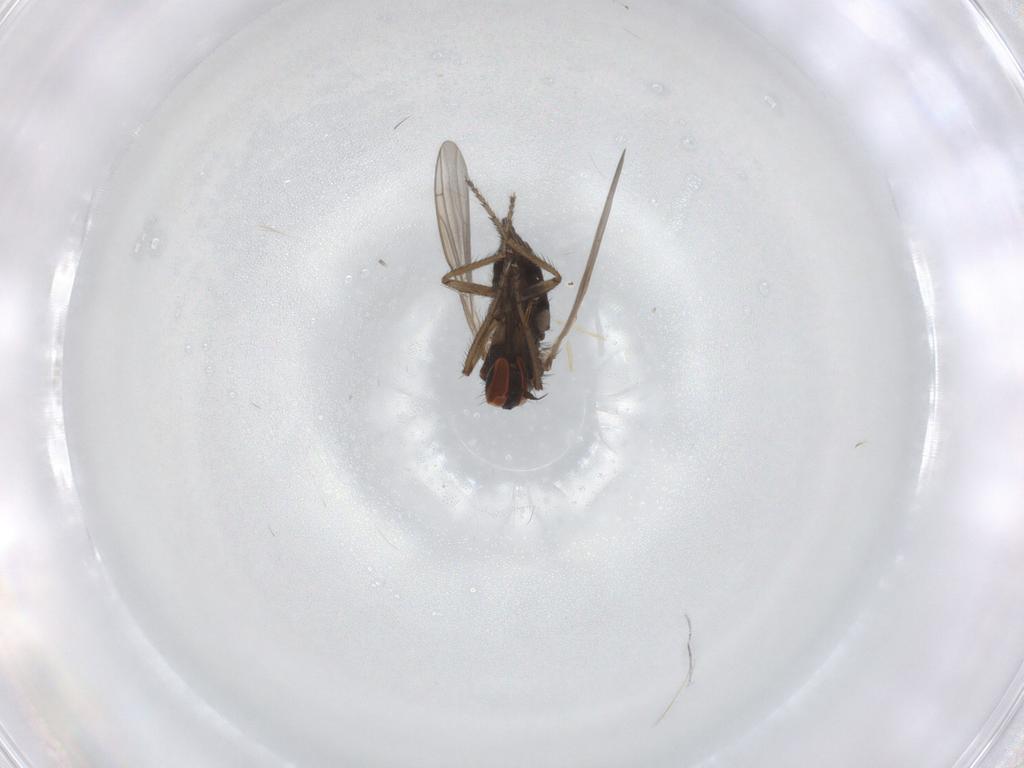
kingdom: Animalia
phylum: Arthropoda
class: Insecta
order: Diptera
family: Empididae
